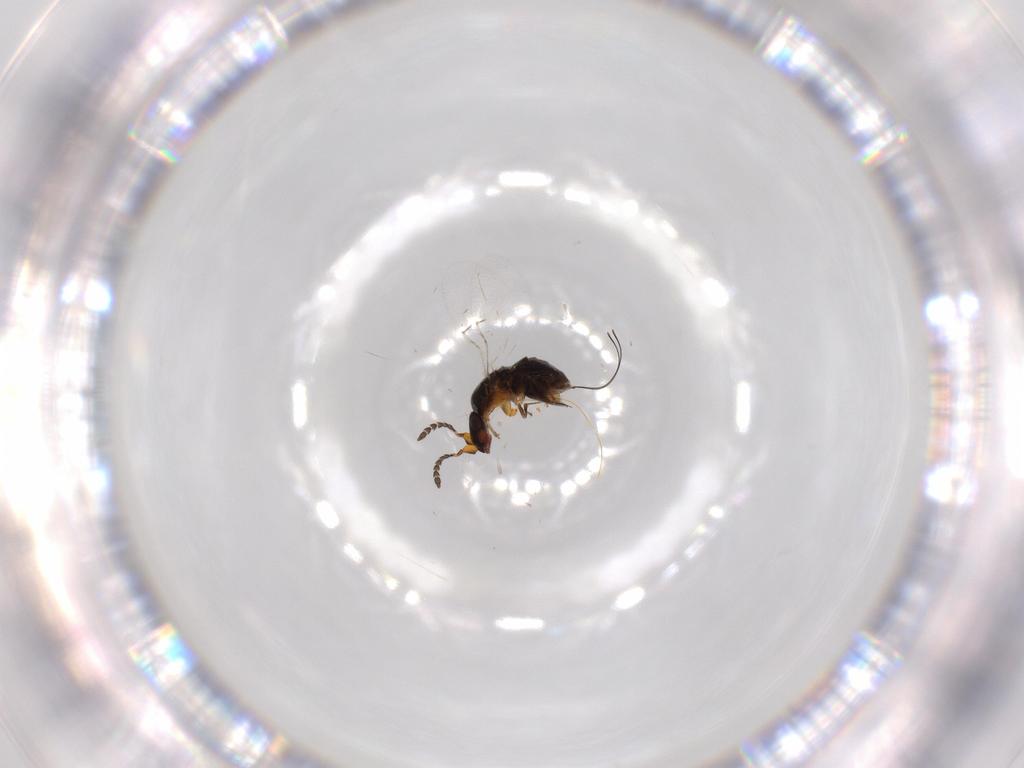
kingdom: Animalia
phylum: Arthropoda
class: Insecta
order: Hymenoptera
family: Agaonidae
